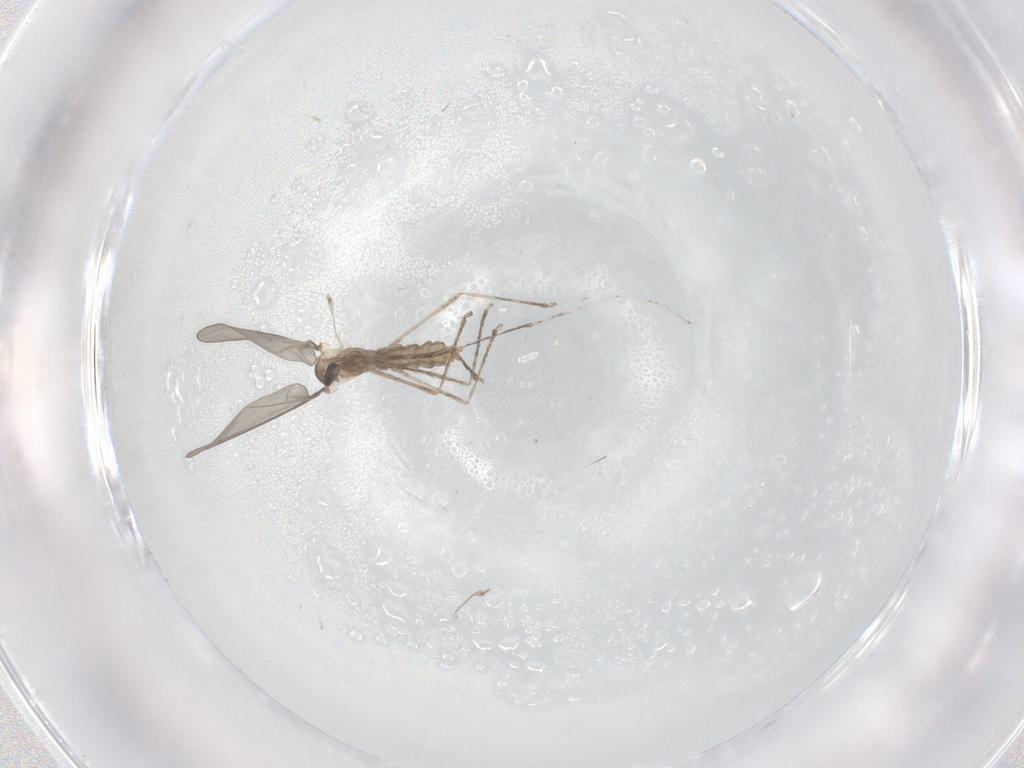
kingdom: Animalia
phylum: Arthropoda
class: Insecta
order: Diptera
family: Cecidomyiidae
